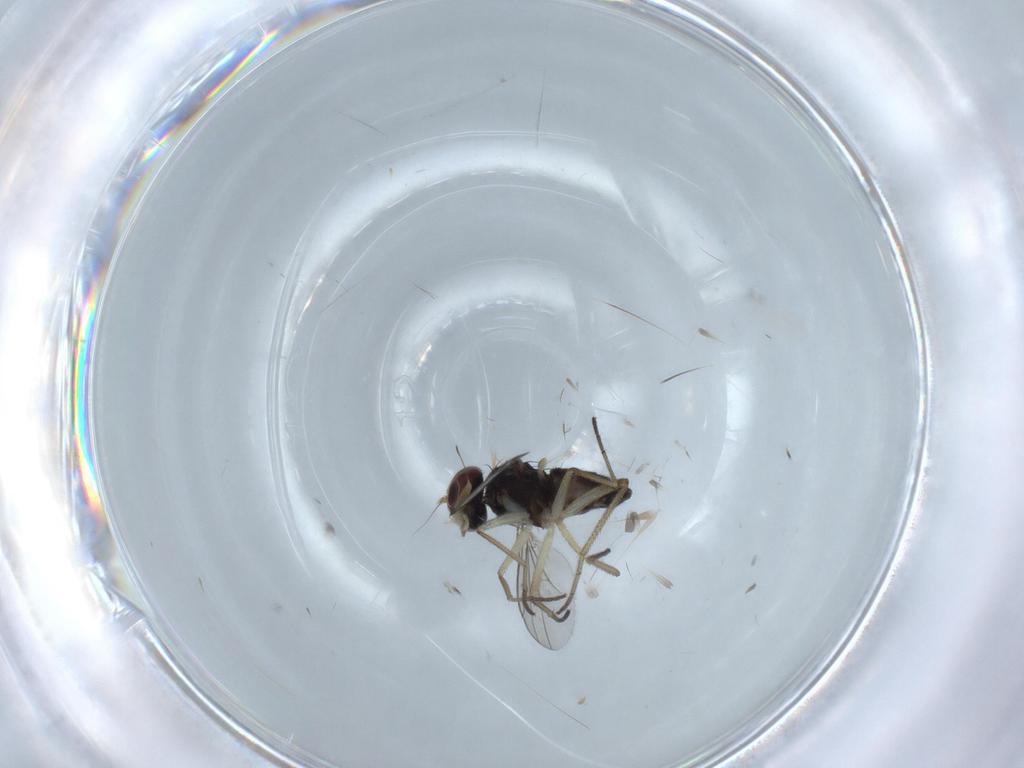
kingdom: Animalia
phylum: Arthropoda
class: Insecta
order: Diptera
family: Dolichopodidae
